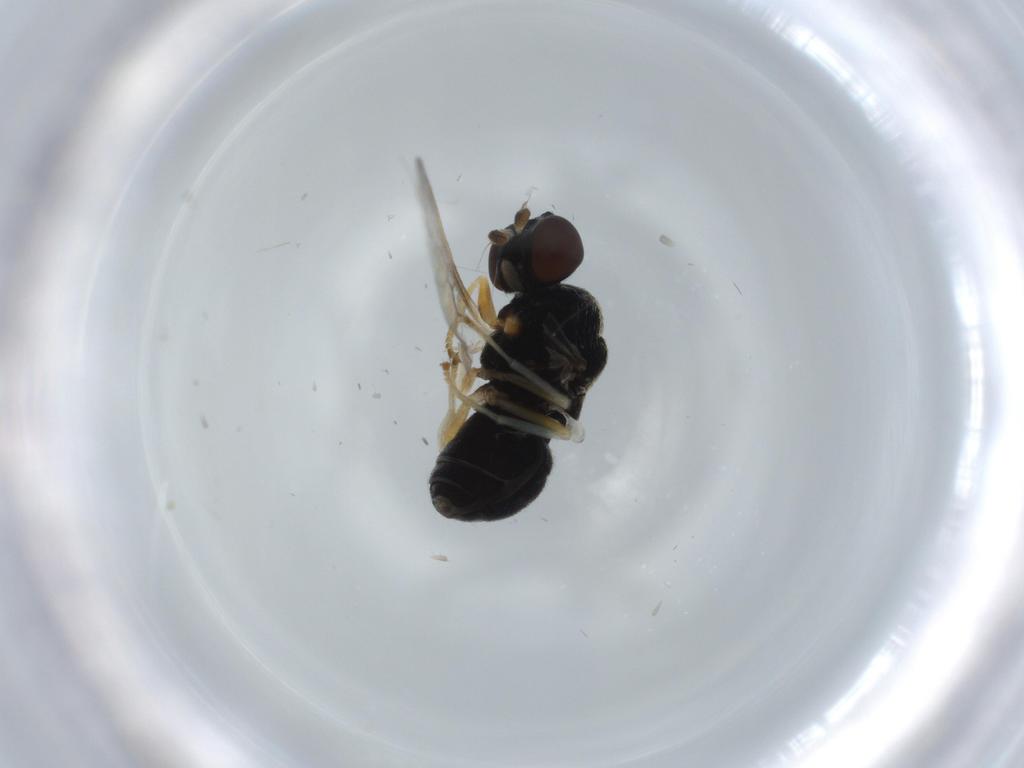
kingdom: Animalia
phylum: Arthropoda
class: Insecta
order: Diptera
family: Stratiomyidae
